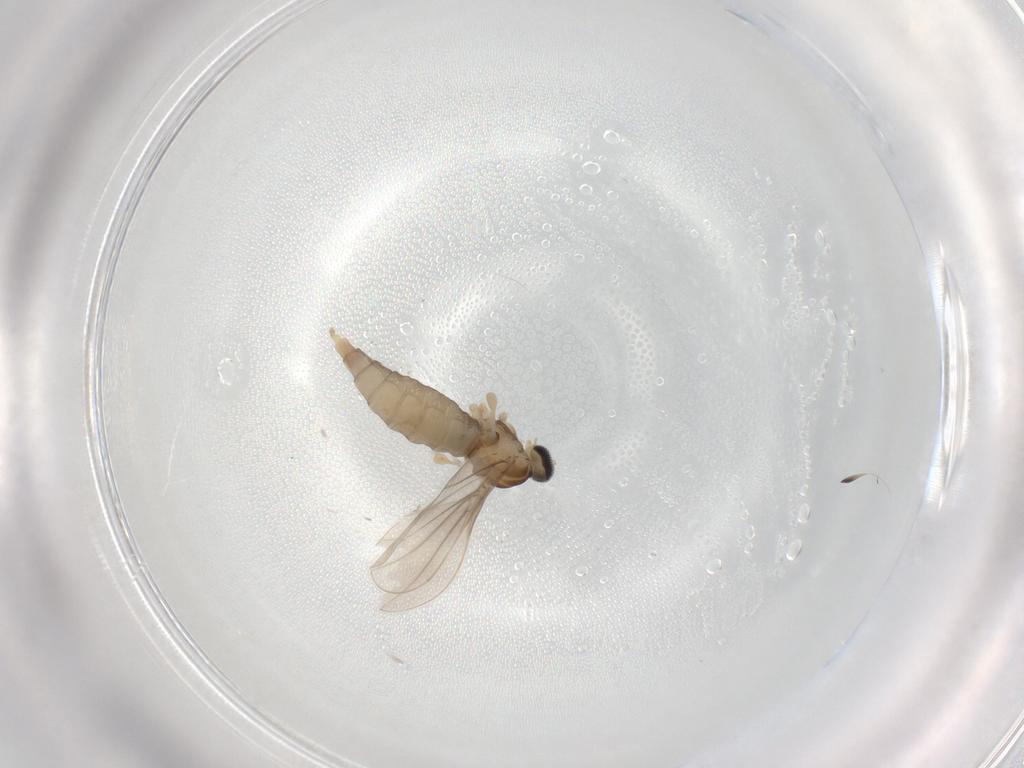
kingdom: Animalia
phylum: Arthropoda
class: Insecta
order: Diptera
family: Cecidomyiidae
